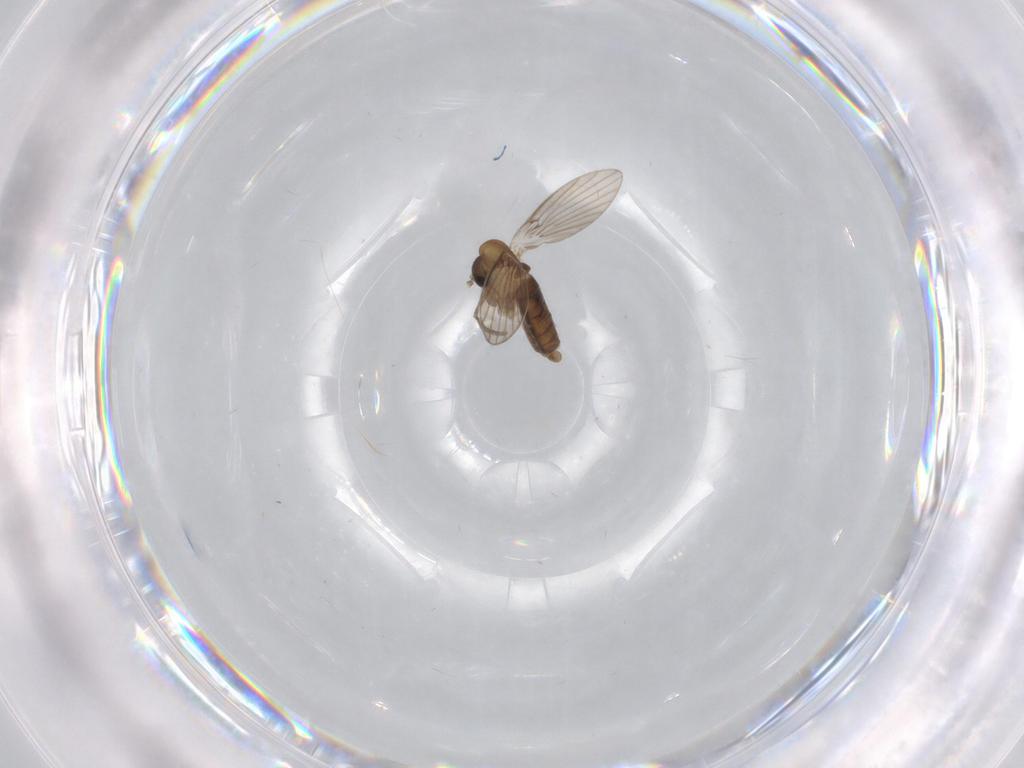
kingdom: Animalia
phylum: Arthropoda
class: Insecta
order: Diptera
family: Psychodidae
